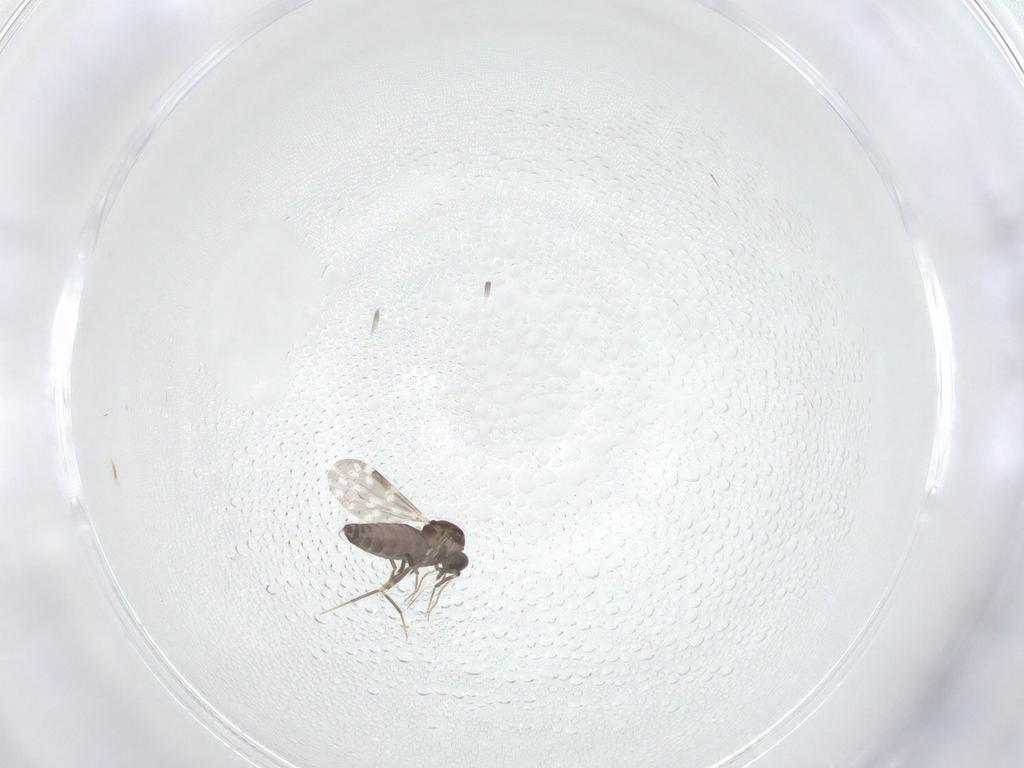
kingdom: Animalia
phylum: Arthropoda
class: Insecta
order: Diptera
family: Ceratopogonidae
